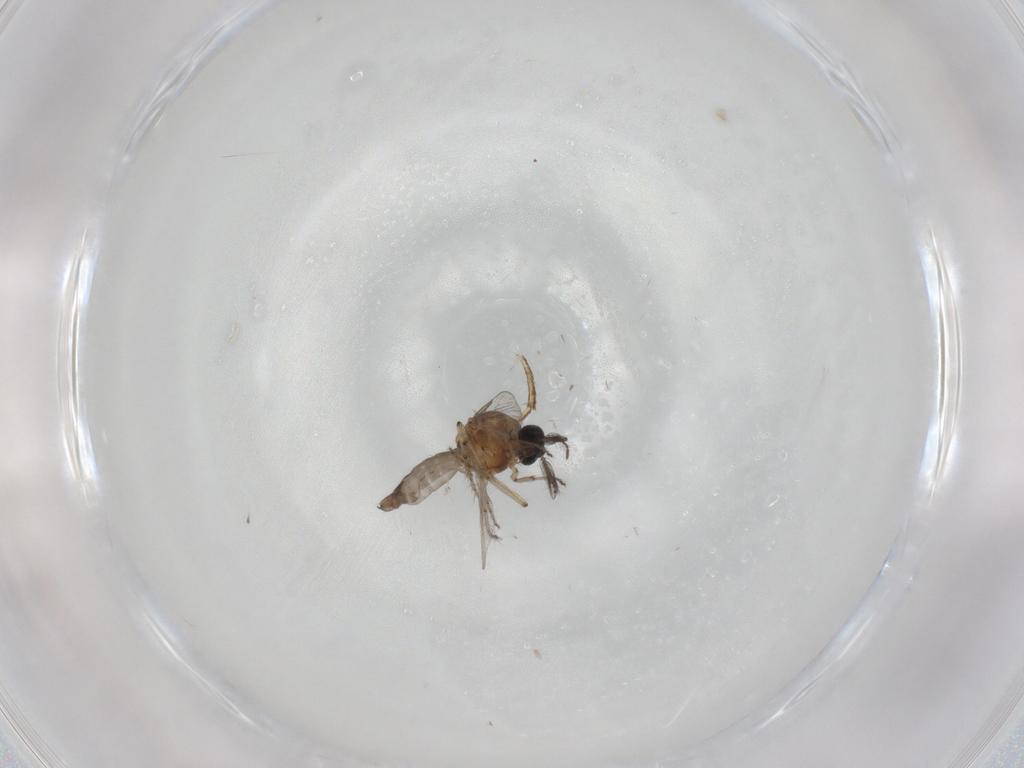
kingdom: Animalia
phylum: Arthropoda
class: Insecta
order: Diptera
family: Ceratopogonidae
